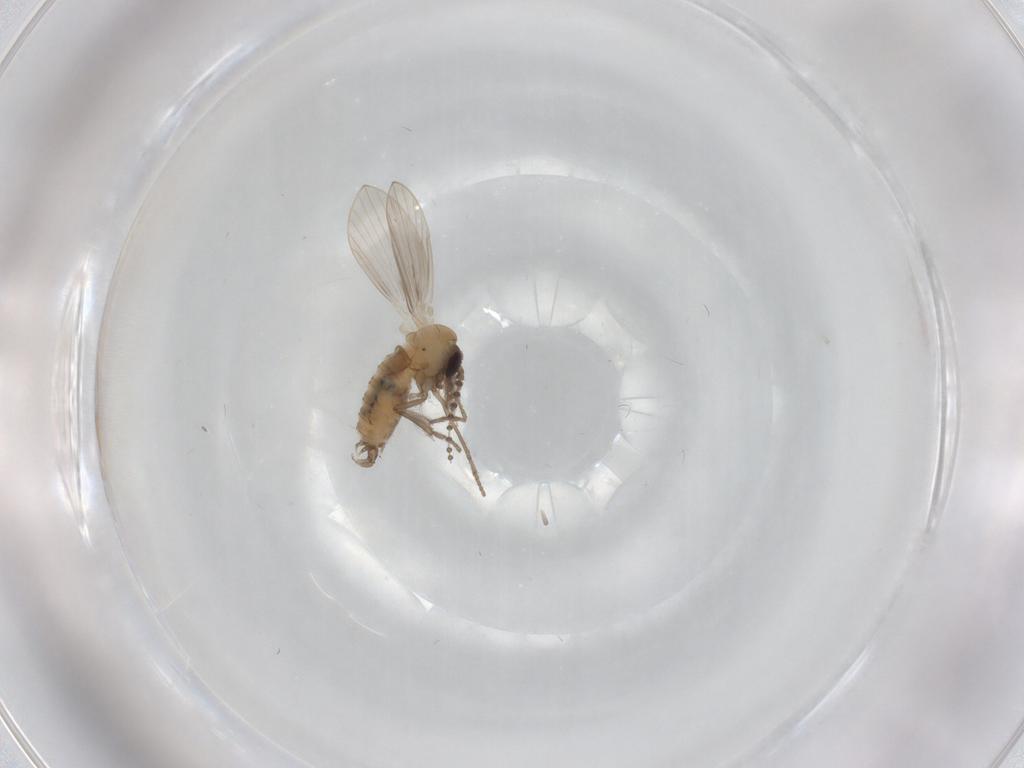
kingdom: Animalia
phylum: Arthropoda
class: Insecta
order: Diptera
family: Psychodidae
